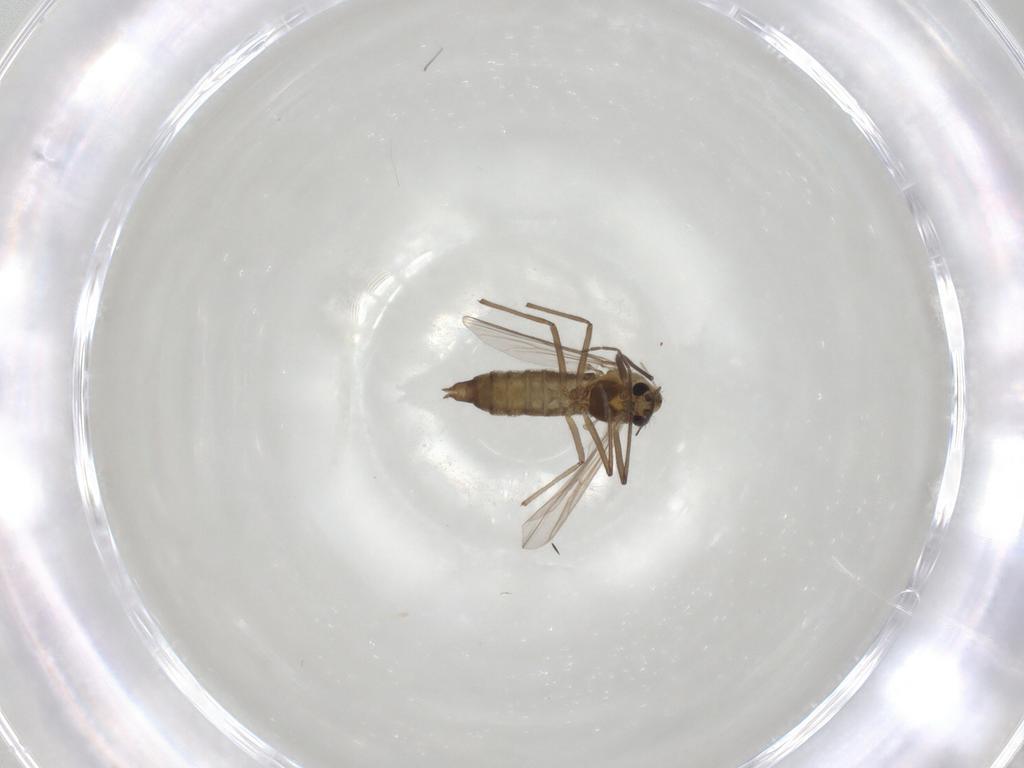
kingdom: Animalia
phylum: Arthropoda
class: Insecta
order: Diptera
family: Chironomidae
